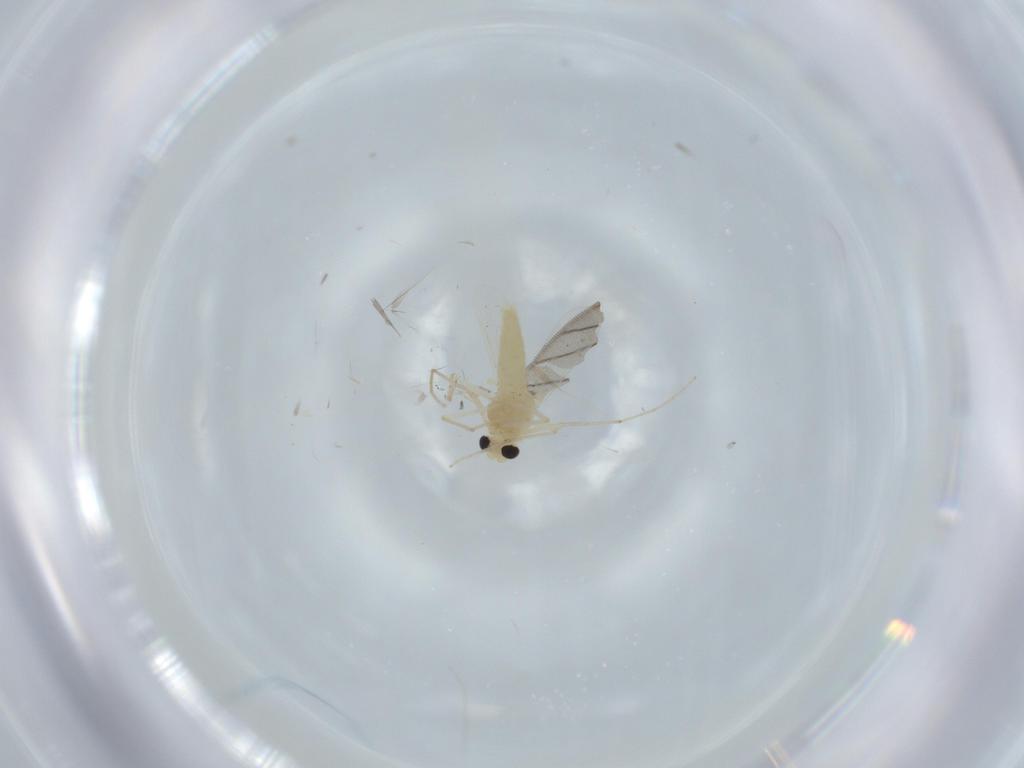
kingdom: Animalia
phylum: Arthropoda
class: Insecta
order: Diptera
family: Chironomidae
